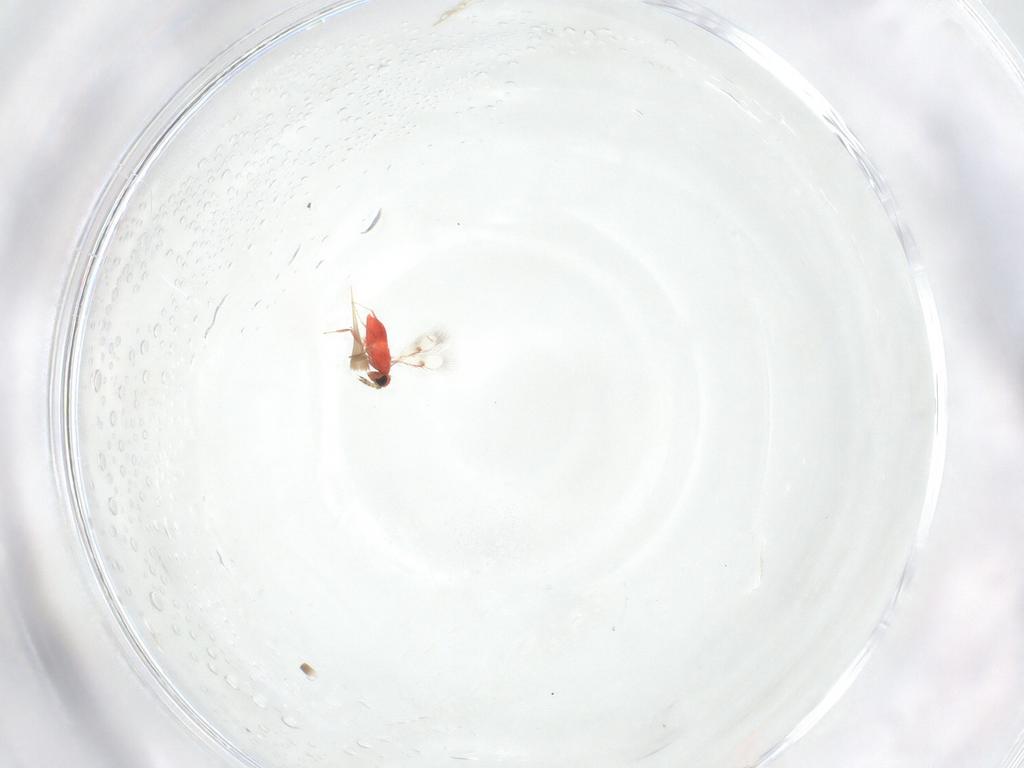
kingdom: Animalia
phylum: Arthropoda
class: Insecta
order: Hymenoptera
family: Trichogrammatidae
